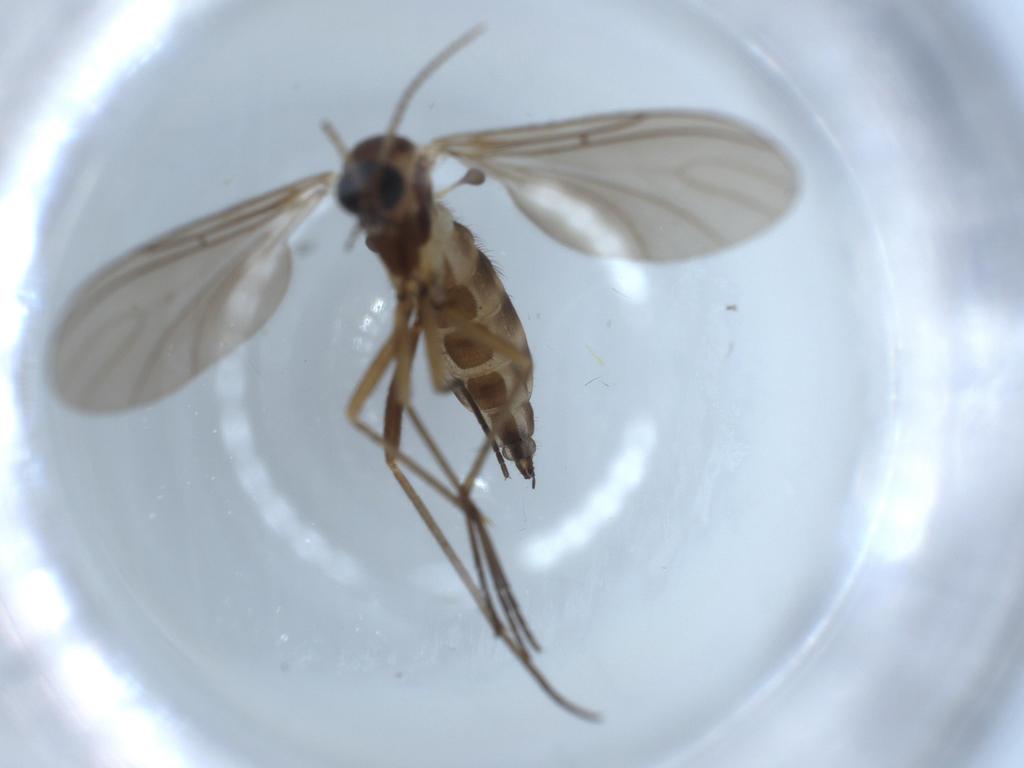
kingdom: Animalia
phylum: Arthropoda
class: Insecta
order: Diptera
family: Sciaridae
